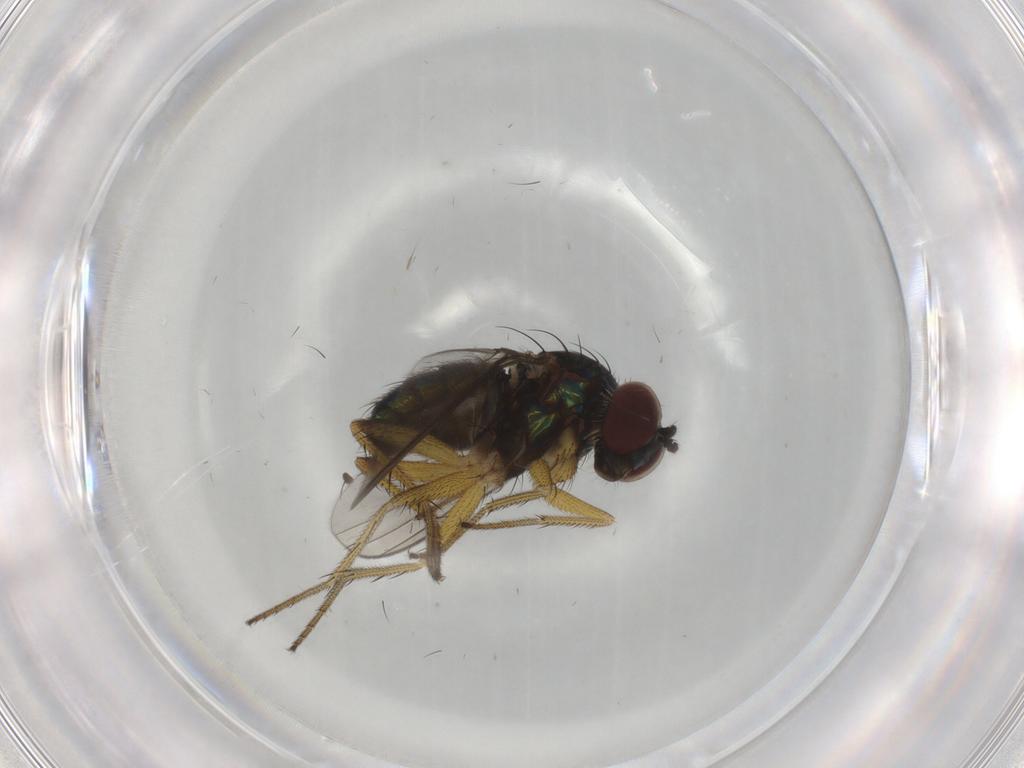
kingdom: Animalia
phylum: Arthropoda
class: Insecta
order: Diptera
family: Dolichopodidae
